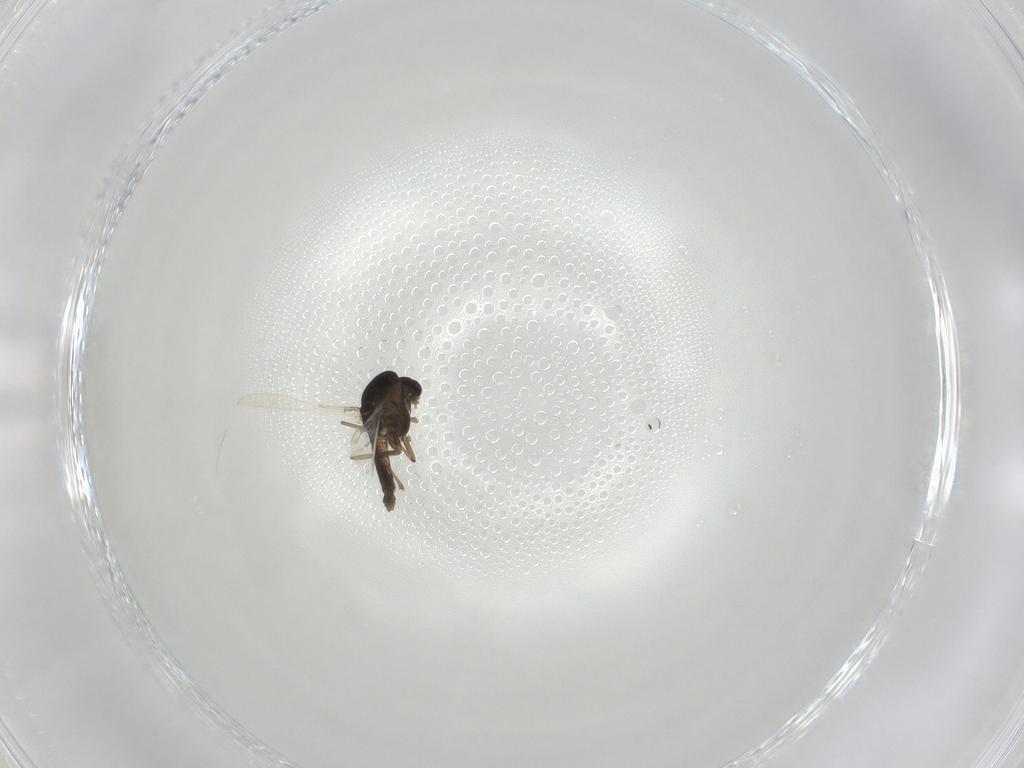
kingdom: Animalia
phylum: Arthropoda
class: Insecta
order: Diptera
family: Chironomidae
